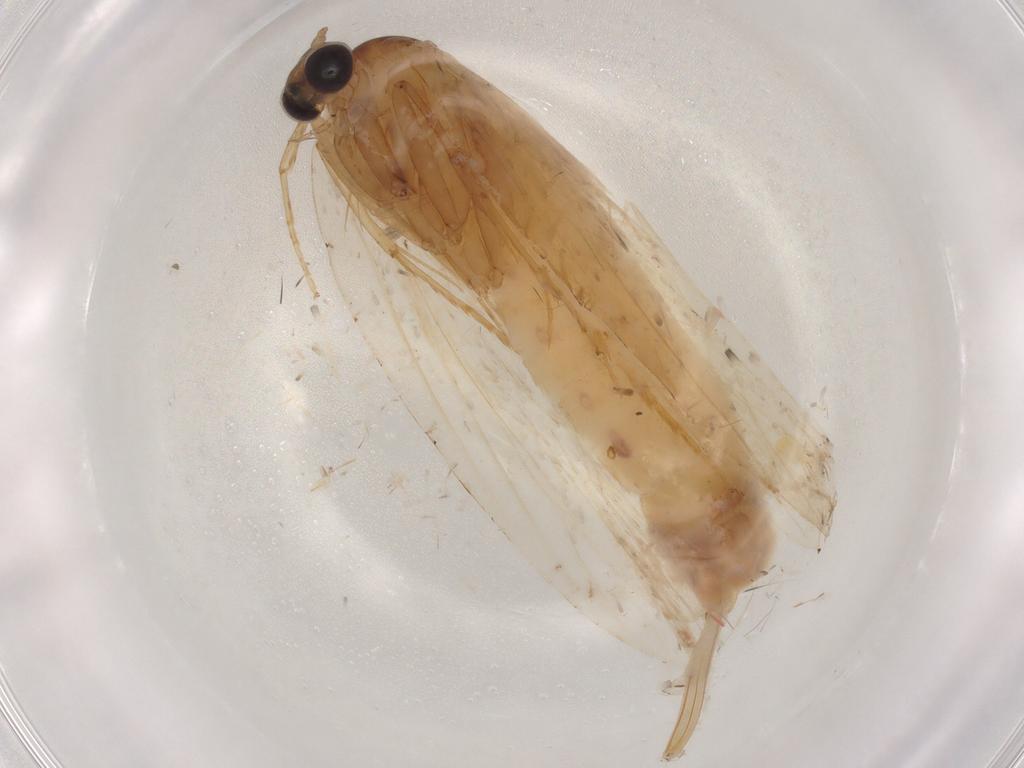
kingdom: Animalia
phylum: Arthropoda
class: Insecta
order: Lepidoptera
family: Psychidae
